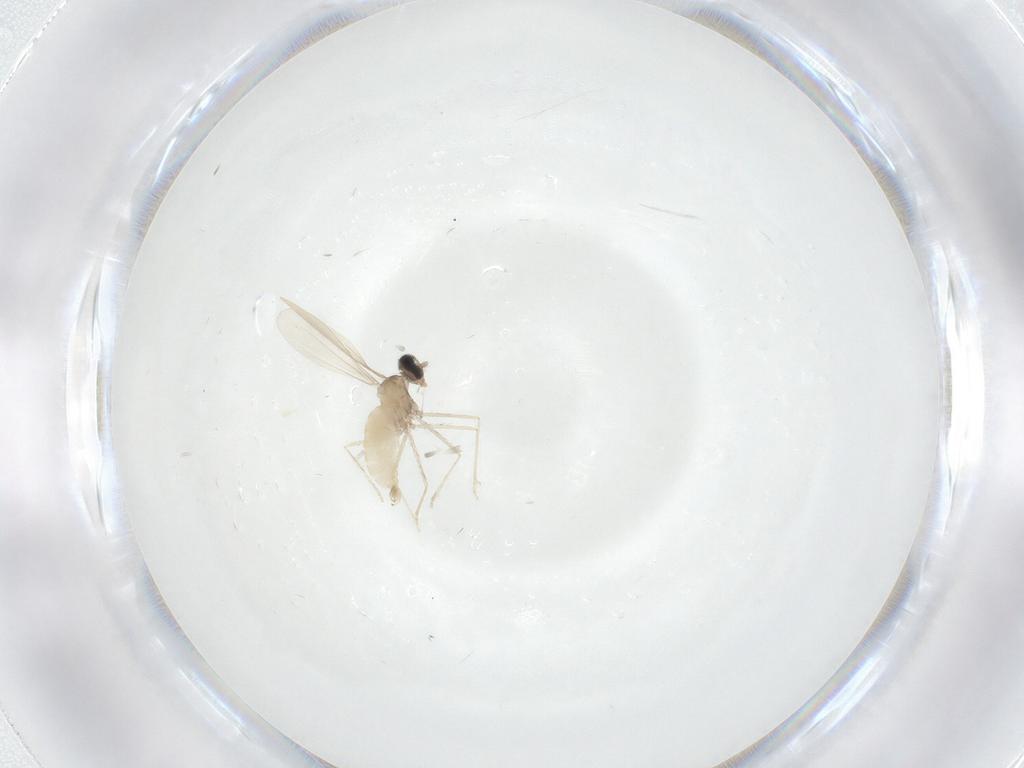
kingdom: Animalia
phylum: Arthropoda
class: Insecta
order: Diptera
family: Cecidomyiidae
